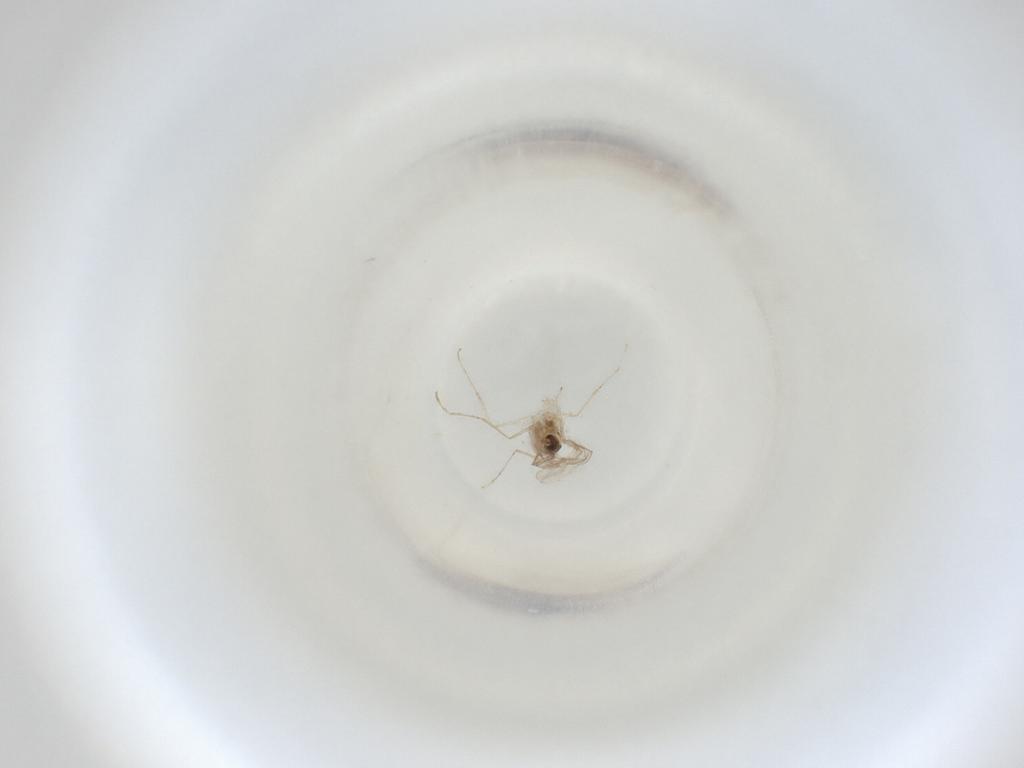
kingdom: Animalia
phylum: Arthropoda
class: Insecta
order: Diptera
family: Cecidomyiidae
